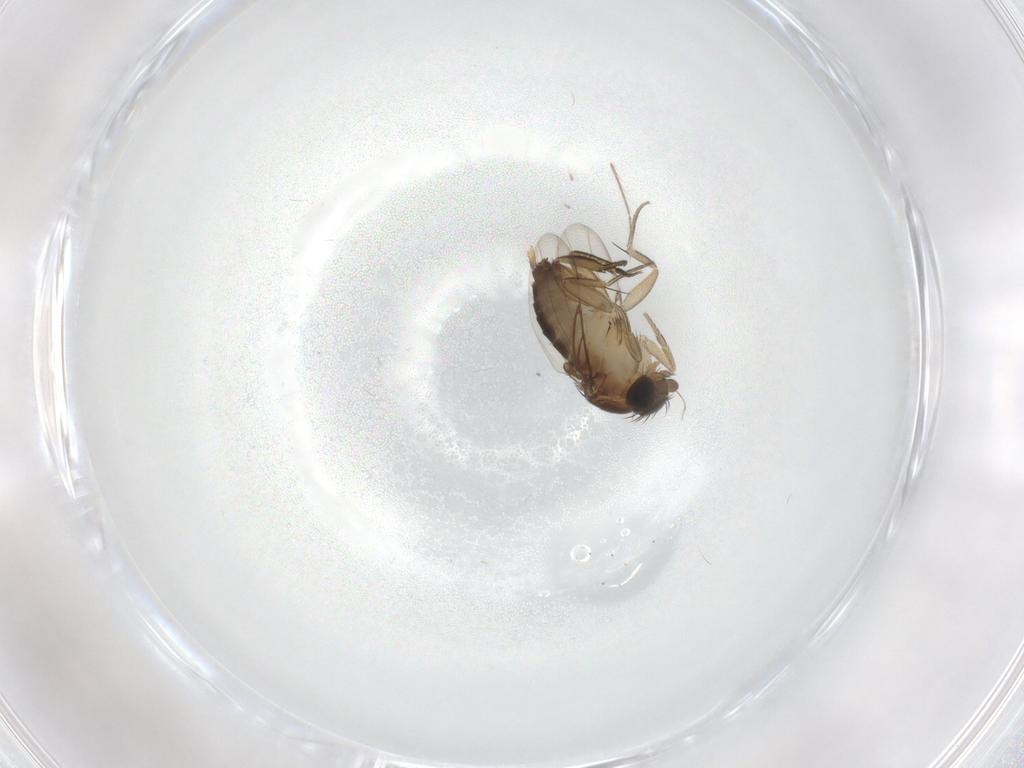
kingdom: Animalia
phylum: Arthropoda
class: Insecta
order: Diptera
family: Phoridae
